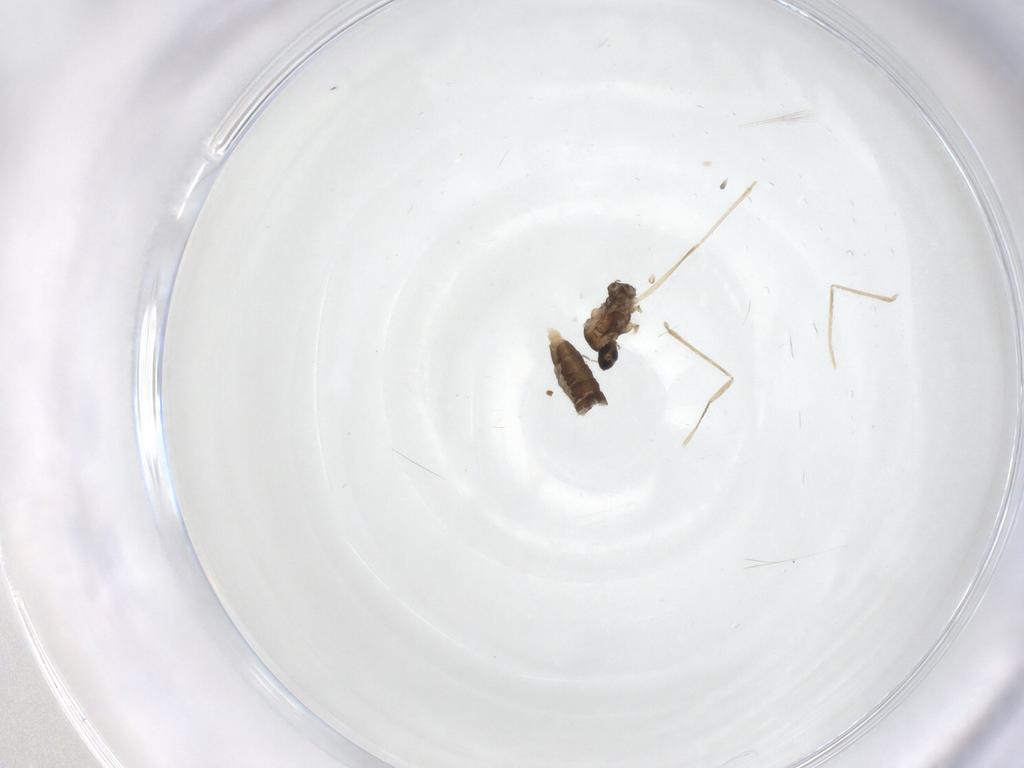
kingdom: Animalia
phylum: Arthropoda
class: Insecta
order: Diptera
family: Cecidomyiidae
